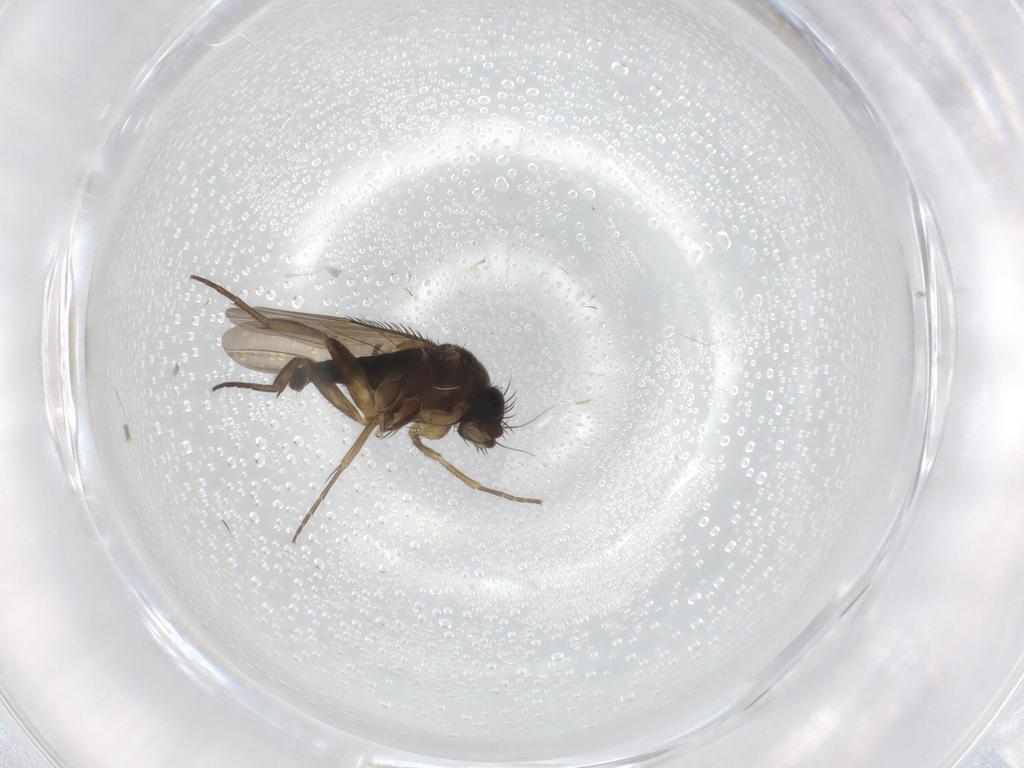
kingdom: Animalia
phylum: Arthropoda
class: Insecta
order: Diptera
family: Phoridae
